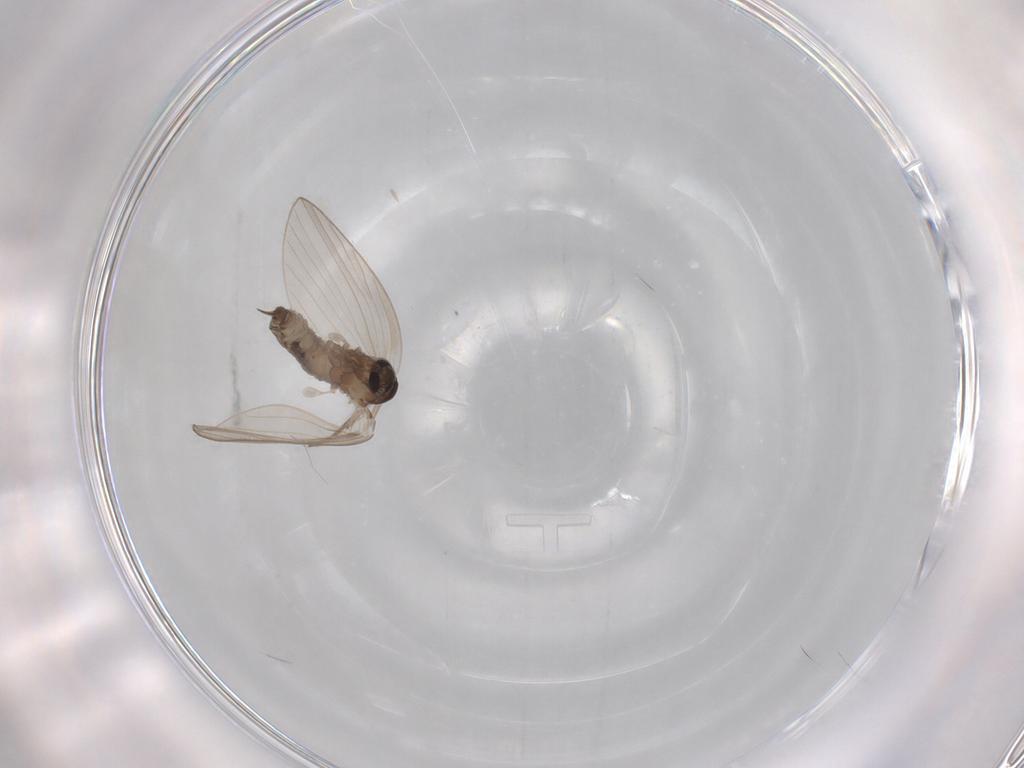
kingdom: Animalia
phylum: Arthropoda
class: Insecta
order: Diptera
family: Psychodidae
